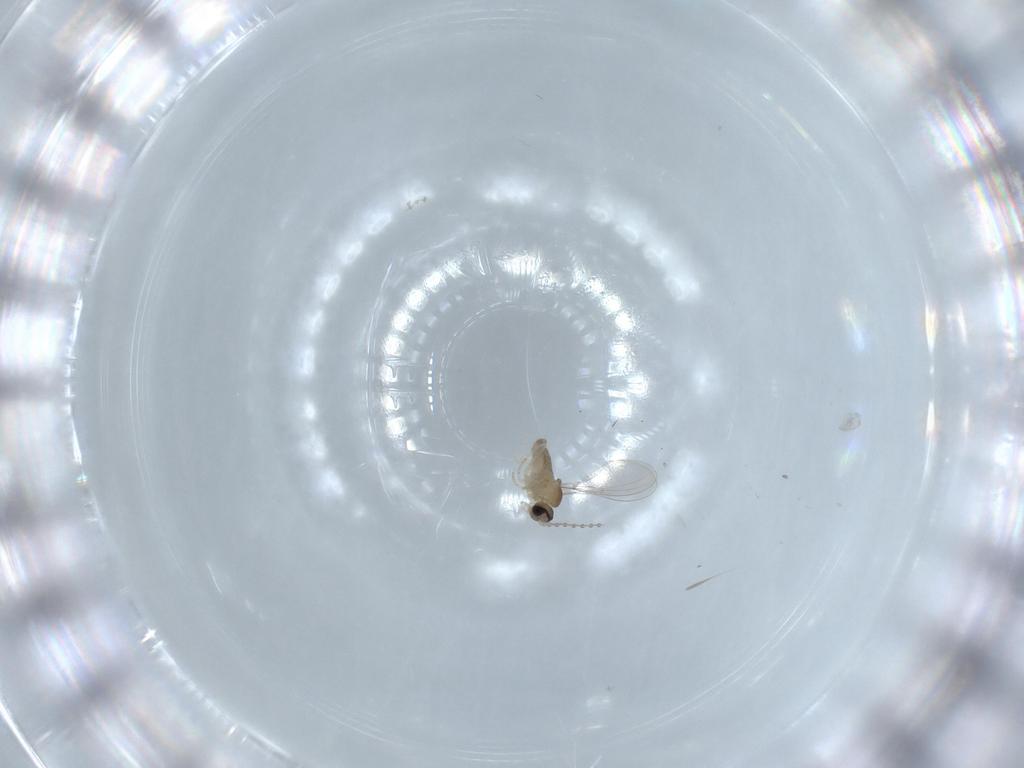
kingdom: Animalia
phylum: Arthropoda
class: Insecta
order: Diptera
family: Cecidomyiidae
